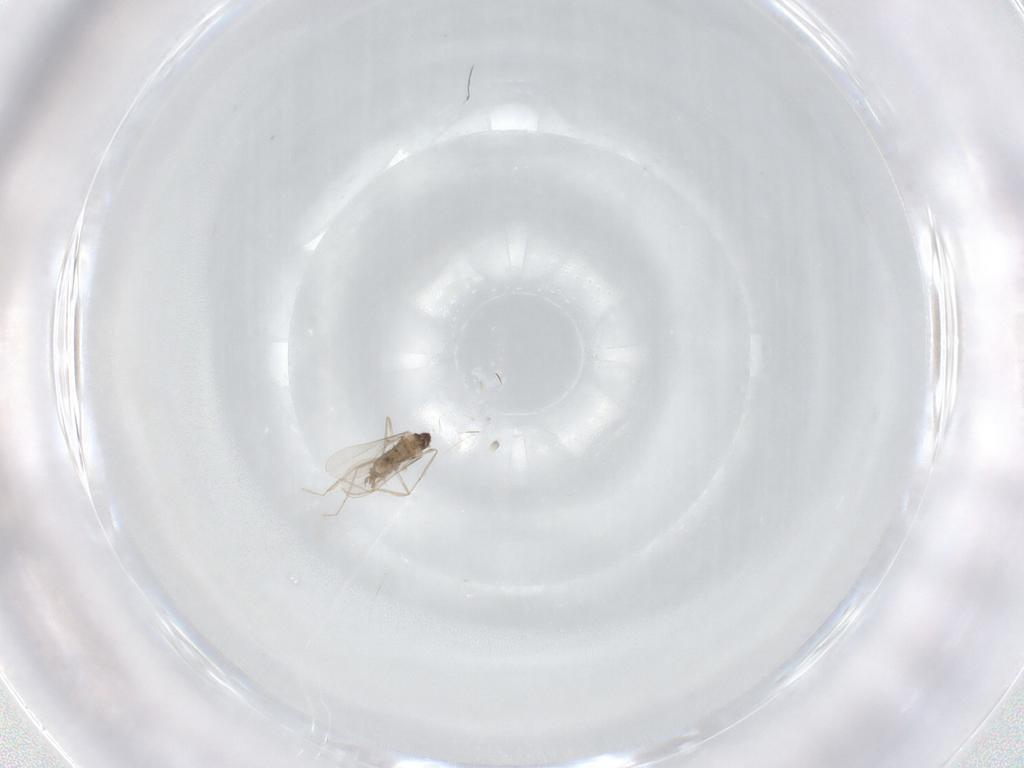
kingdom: Animalia
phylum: Arthropoda
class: Insecta
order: Diptera
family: Cecidomyiidae
